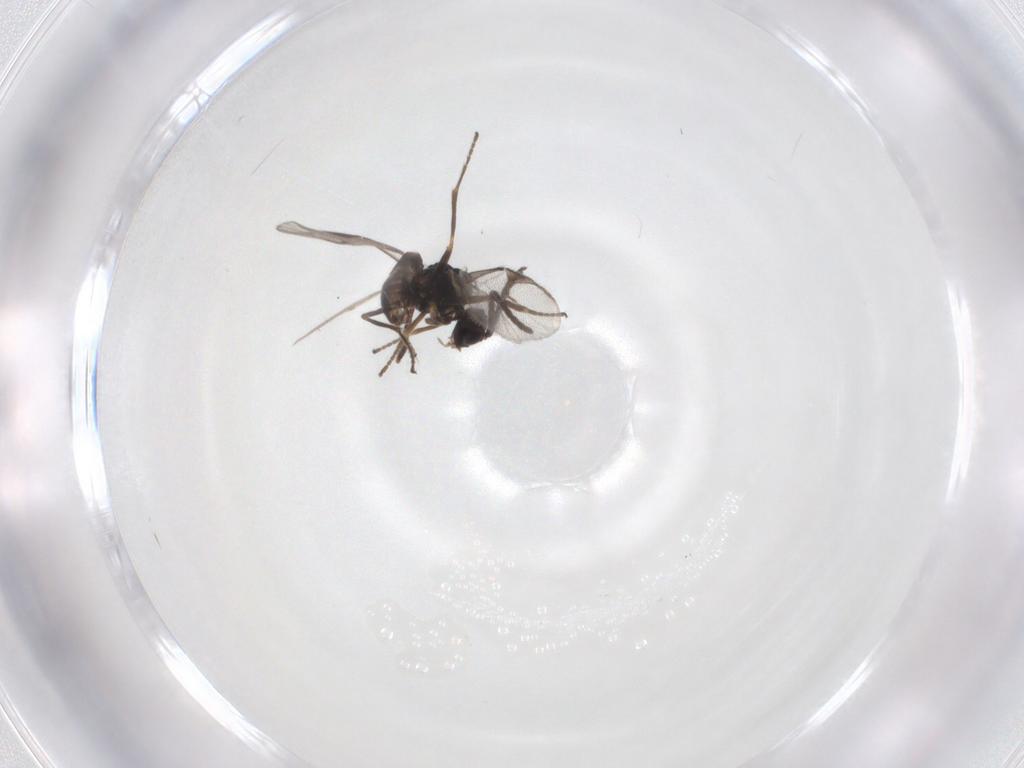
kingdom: Animalia
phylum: Arthropoda
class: Insecta
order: Hymenoptera
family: Braconidae
